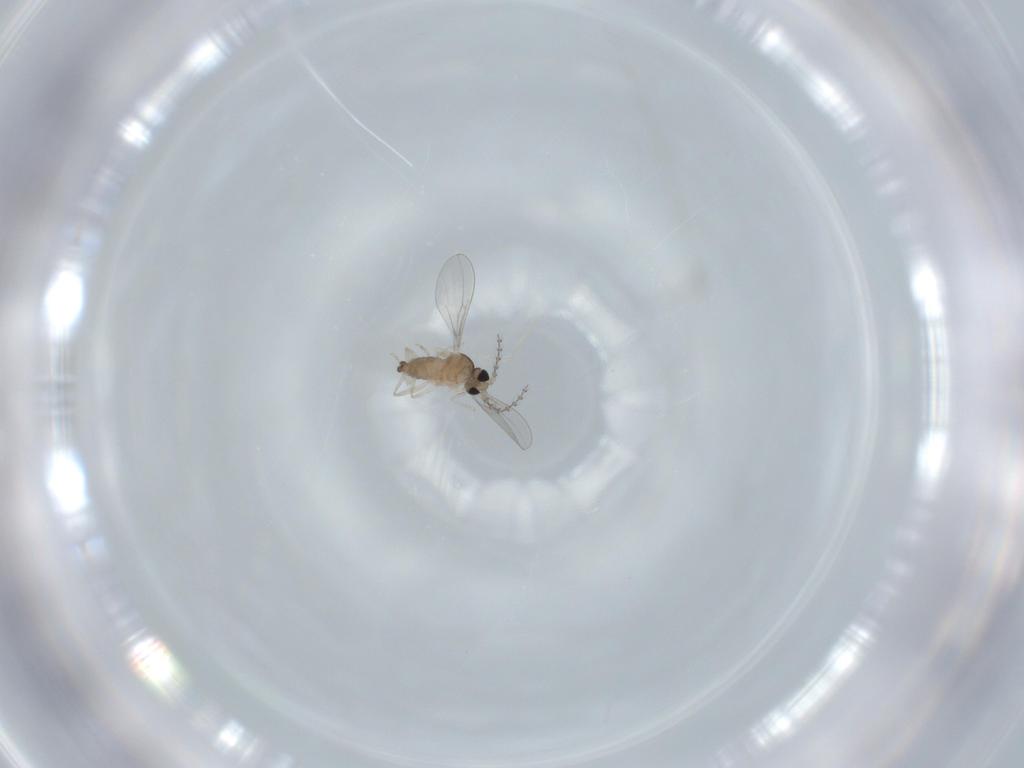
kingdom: Animalia
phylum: Arthropoda
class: Insecta
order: Diptera
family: Cecidomyiidae
